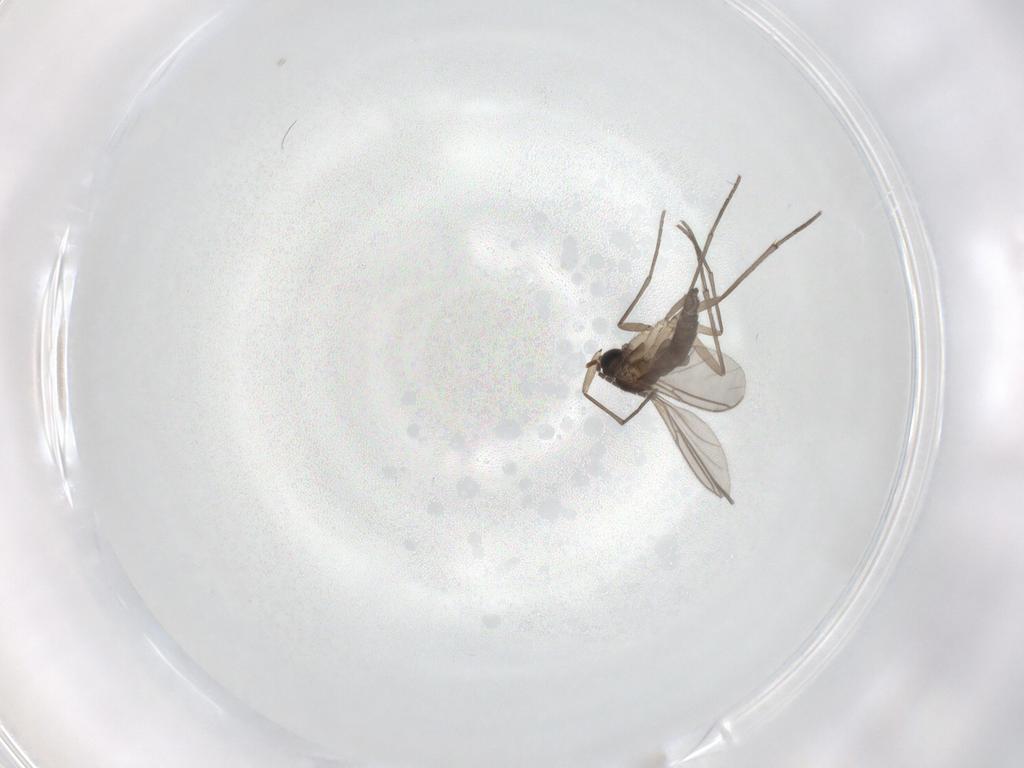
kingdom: Animalia
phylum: Arthropoda
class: Insecta
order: Diptera
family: Sciaridae
